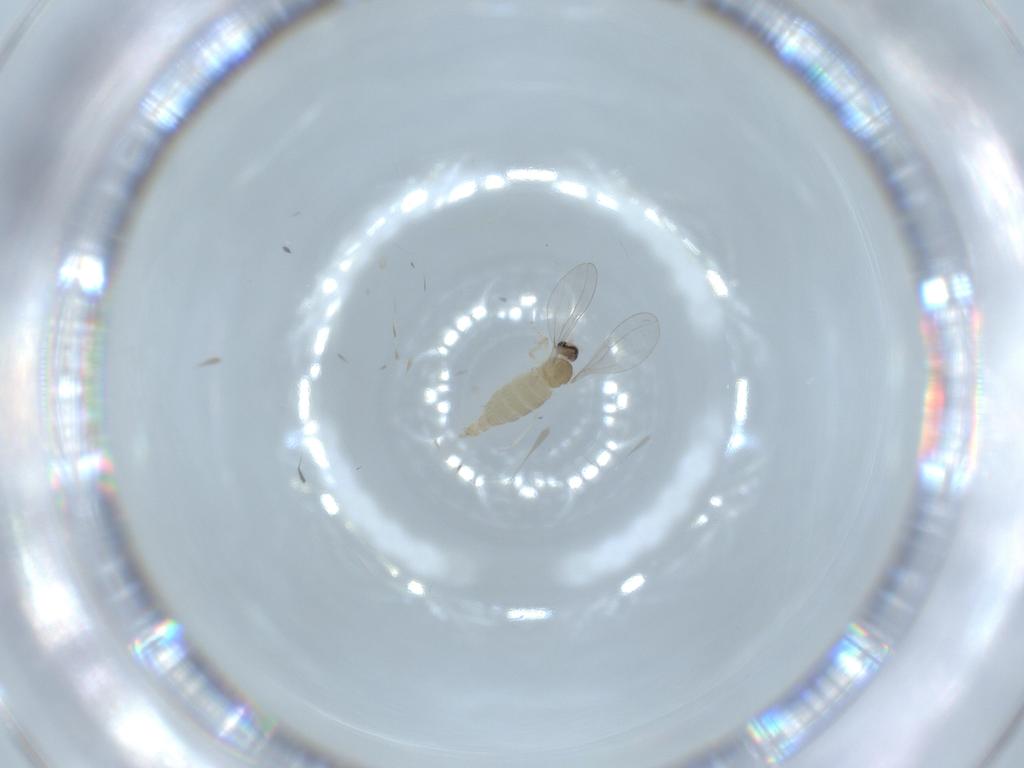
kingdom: Animalia
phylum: Arthropoda
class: Insecta
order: Diptera
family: Cecidomyiidae
